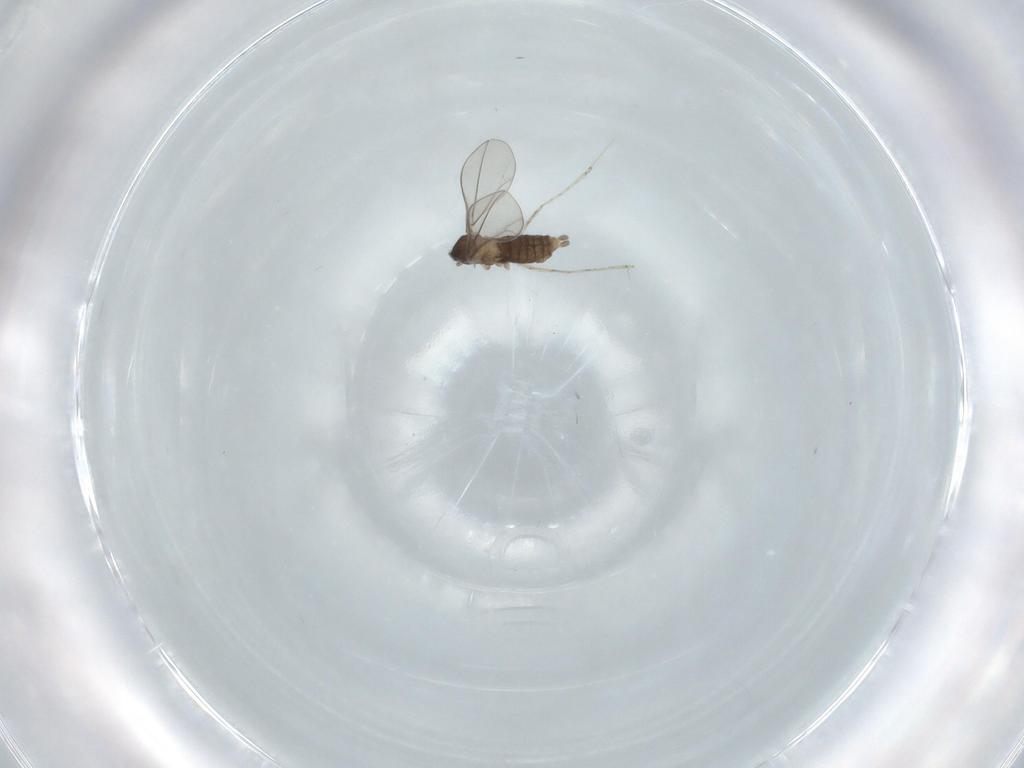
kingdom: Animalia
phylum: Arthropoda
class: Insecta
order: Diptera
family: Cecidomyiidae
